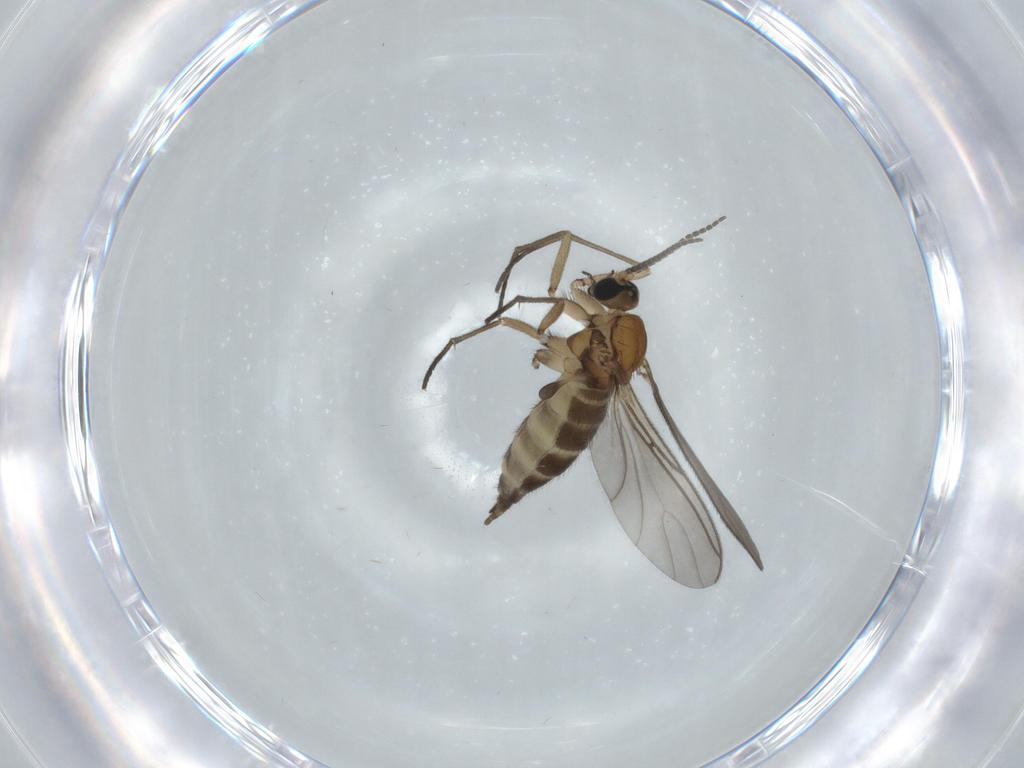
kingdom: Animalia
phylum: Arthropoda
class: Insecta
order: Diptera
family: Sciaridae
